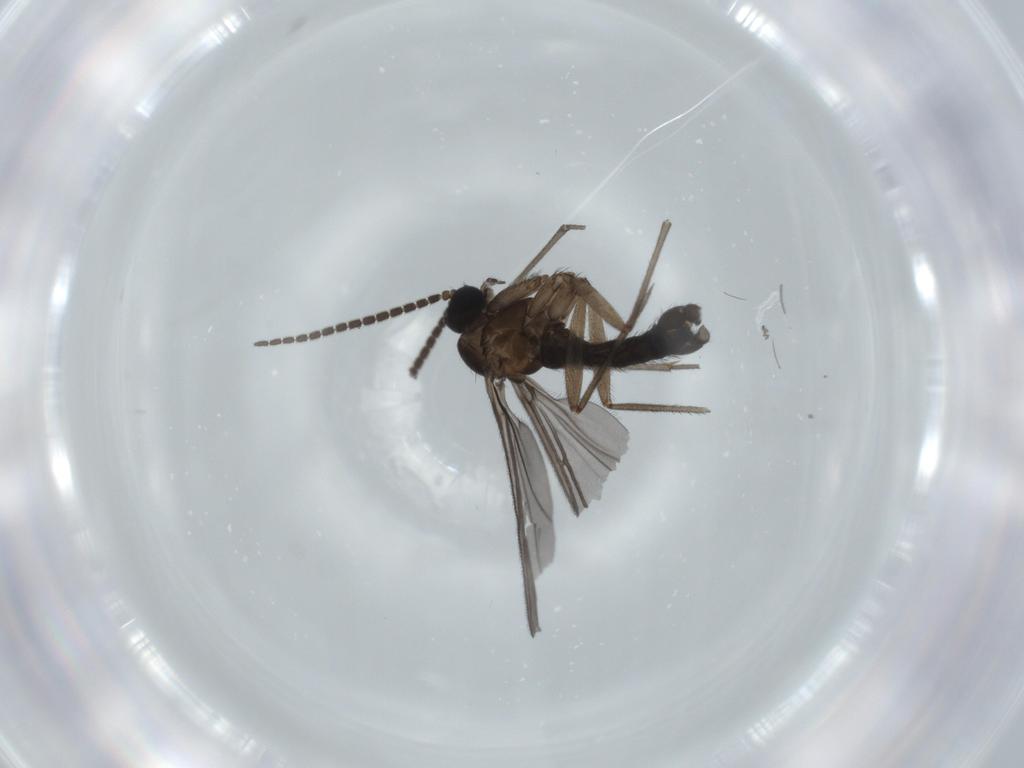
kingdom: Animalia
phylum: Arthropoda
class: Insecta
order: Diptera
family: Sciaridae
